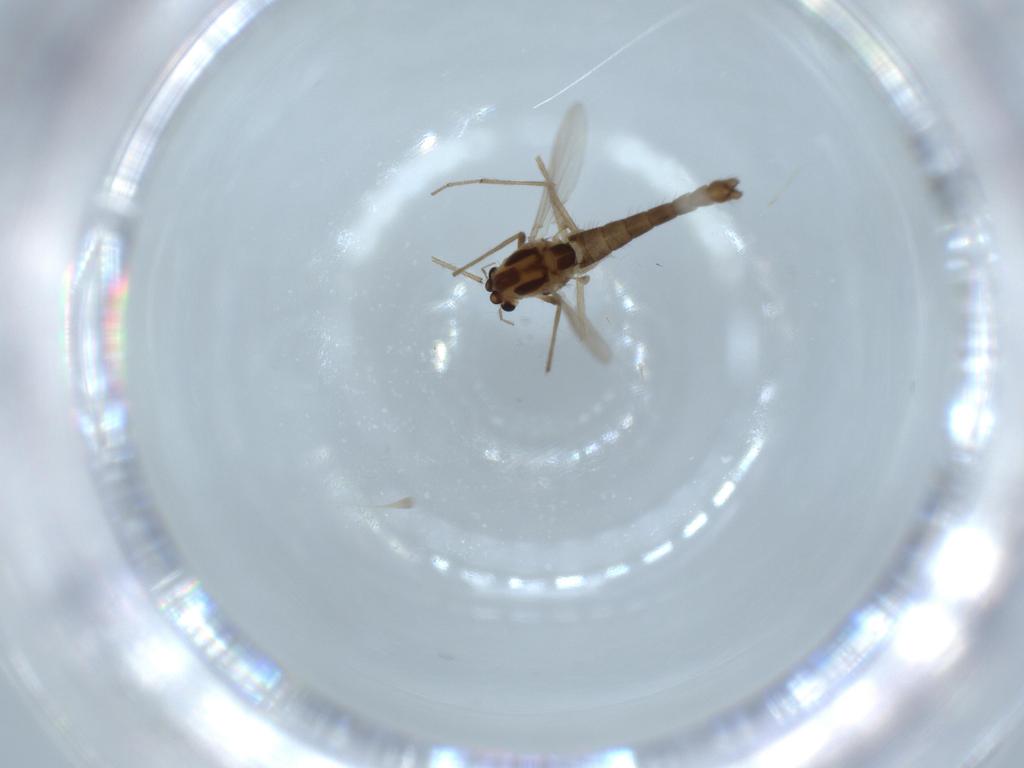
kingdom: Animalia
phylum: Arthropoda
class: Insecta
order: Diptera
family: Chironomidae
